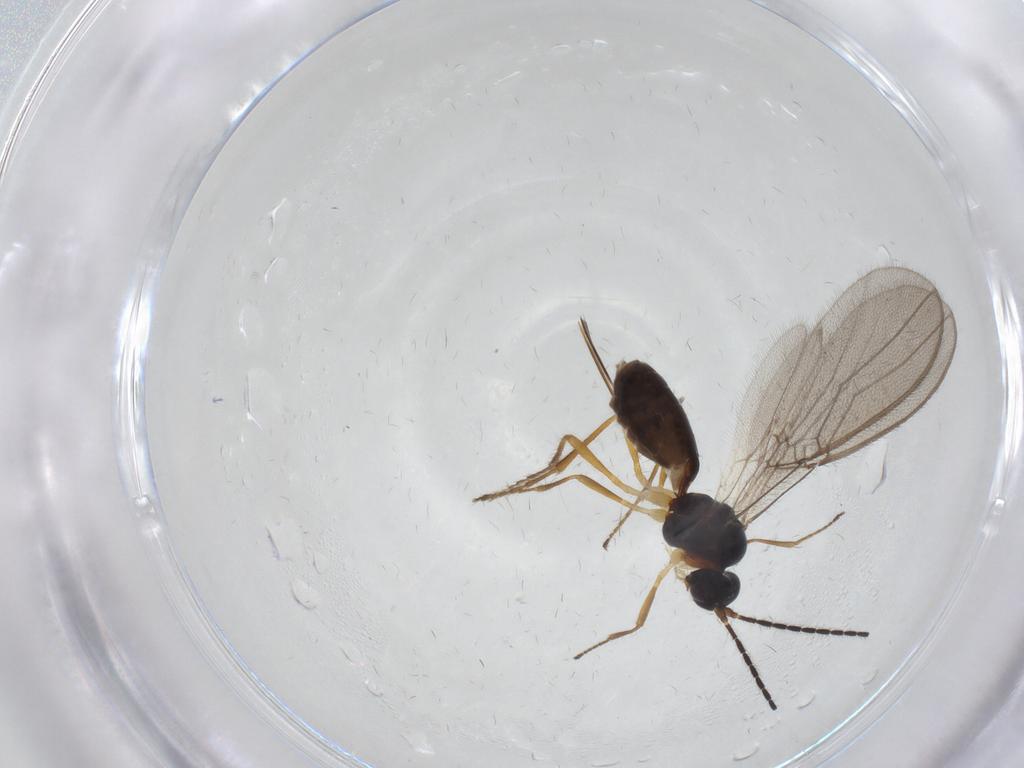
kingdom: Animalia
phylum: Arthropoda
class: Insecta
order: Hymenoptera
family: Braconidae
